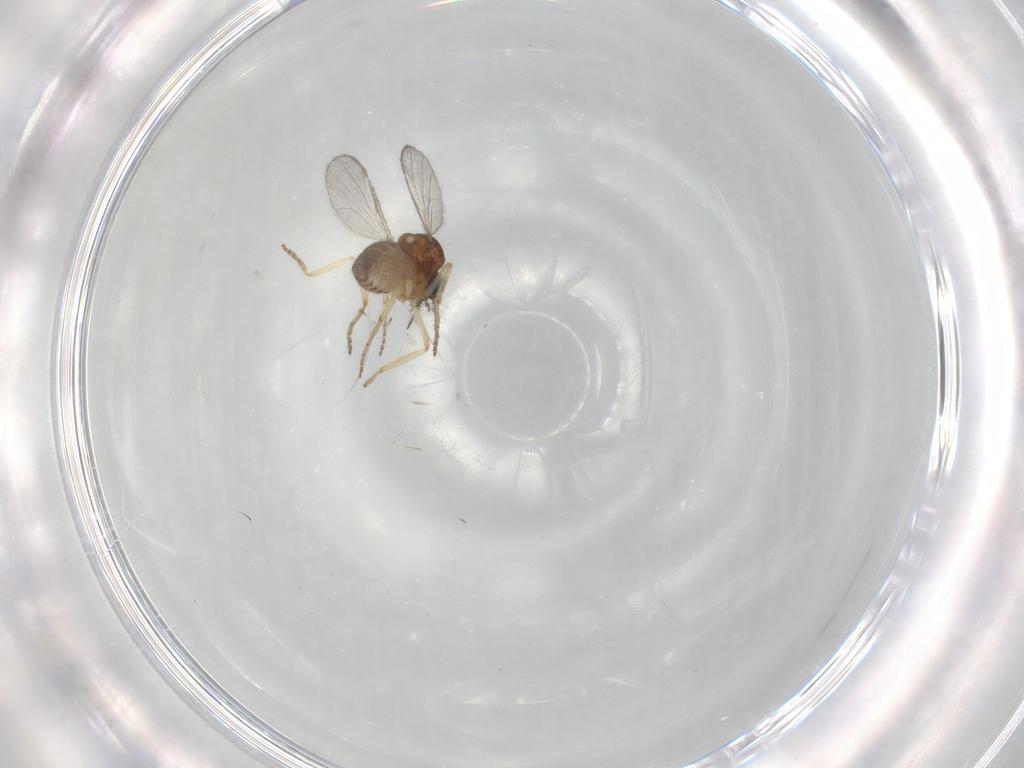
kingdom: Animalia
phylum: Arthropoda
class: Insecta
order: Diptera
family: Ceratopogonidae
